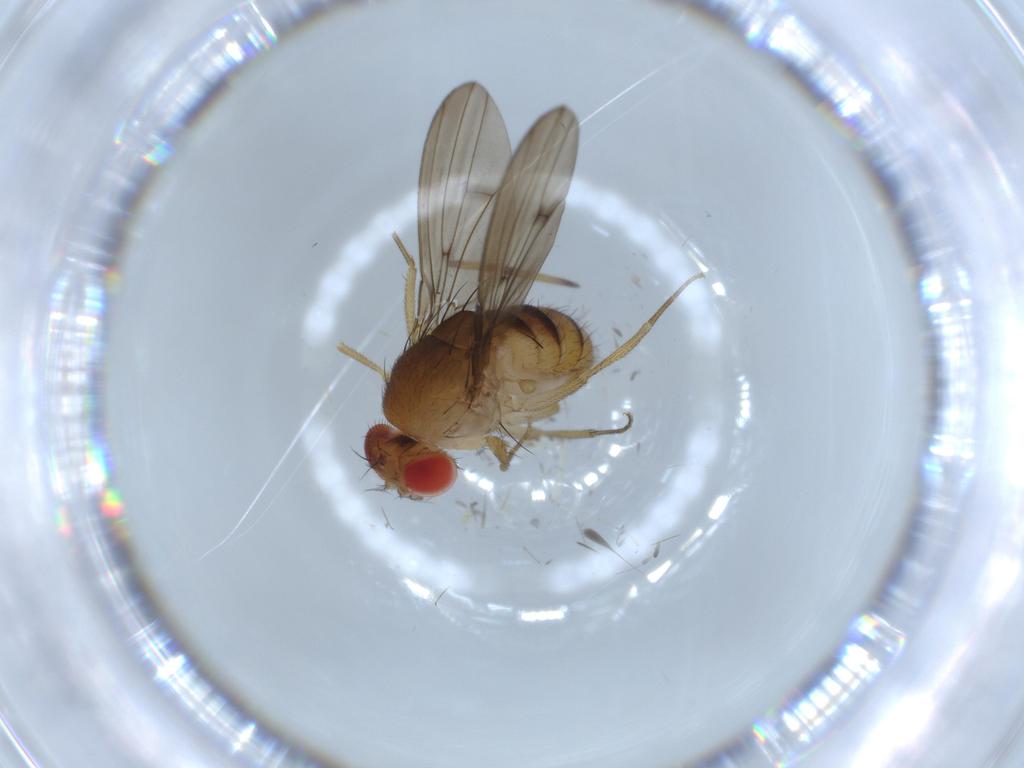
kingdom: Animalia
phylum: Arthropoda
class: Insecta
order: Diptera
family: Drosophilidae
